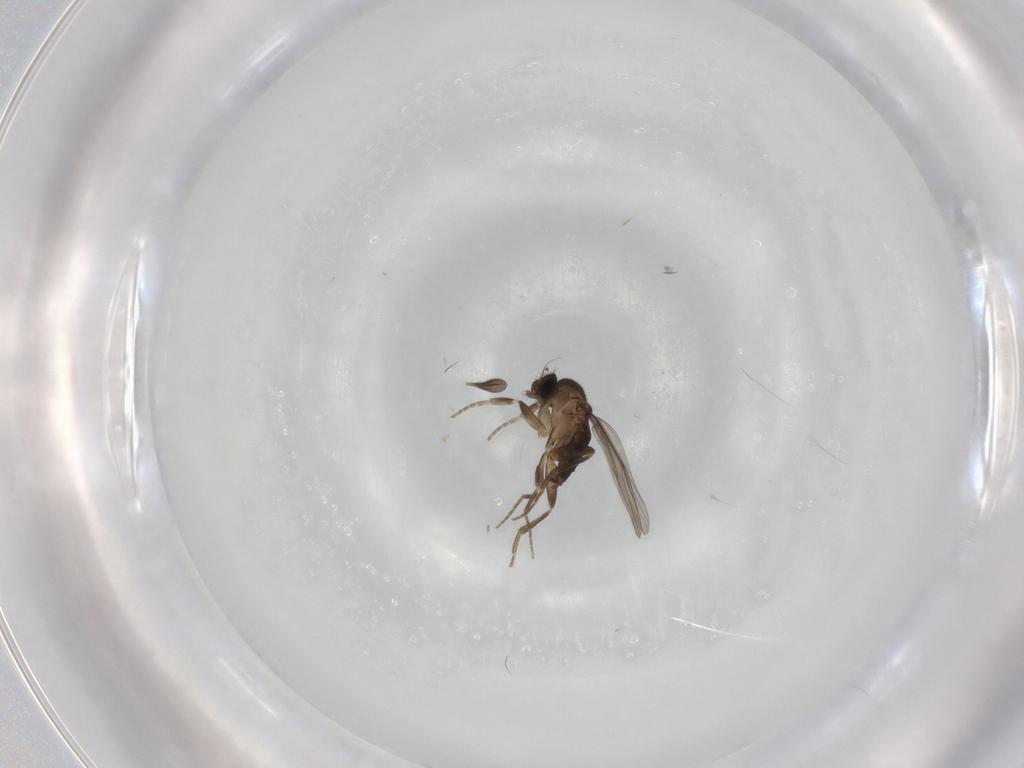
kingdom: Animalia
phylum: Arthropoda
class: Insecta
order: Diptera
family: Sciaridae
